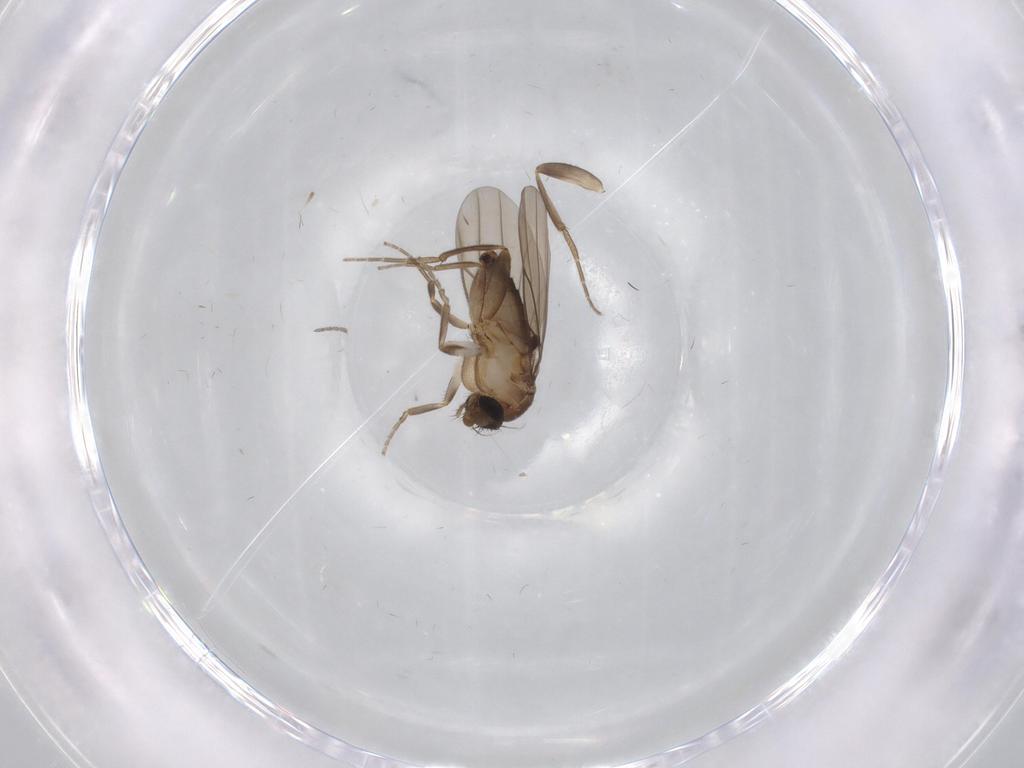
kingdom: Animalia
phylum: Arthropoda
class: Insecta
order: Diptera
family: Phoridae
